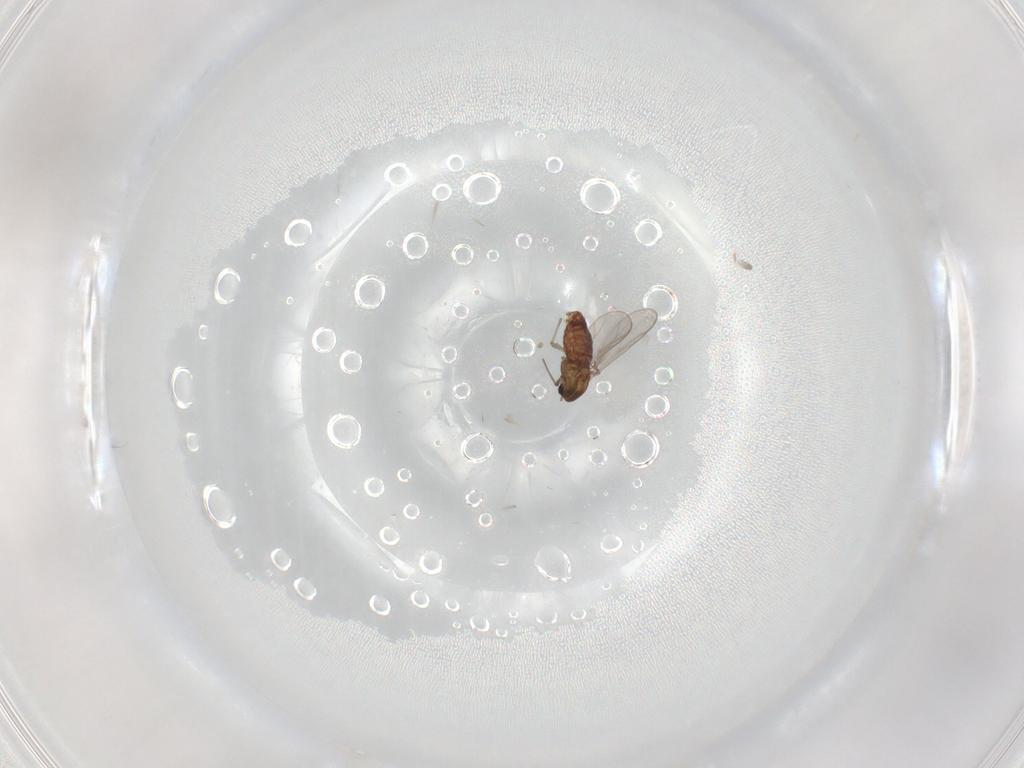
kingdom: Animalia
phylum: Arthropoda
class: Insecta
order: Diptera
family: Chironomidae
